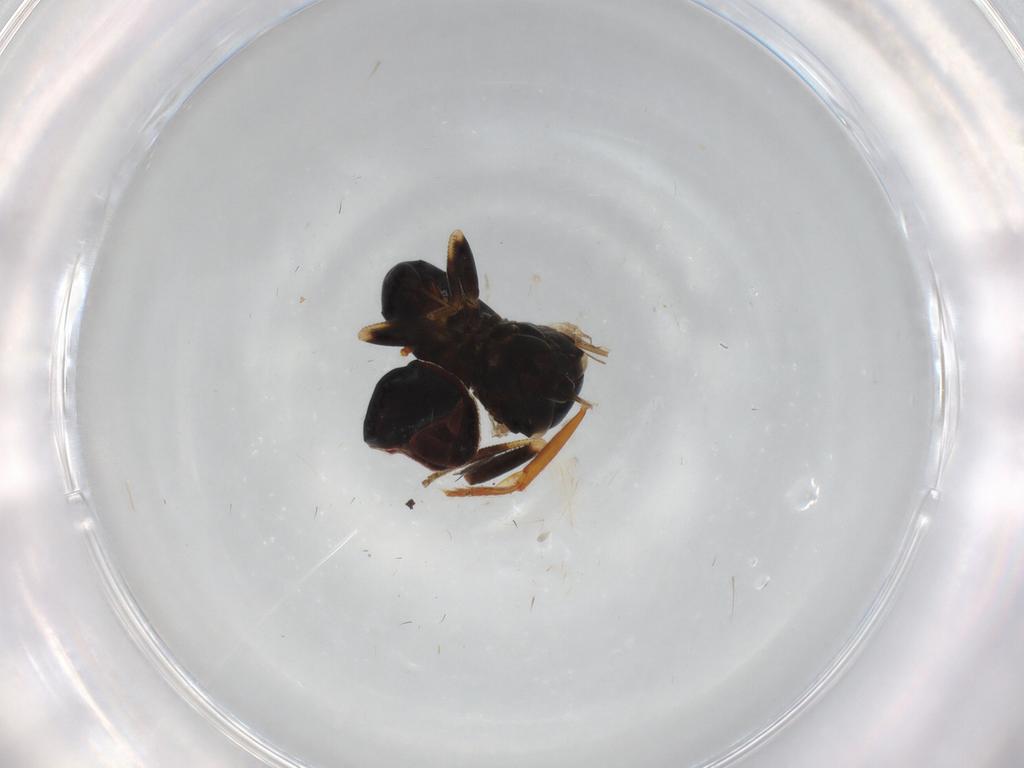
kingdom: Animalia
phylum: Arthropoda
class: Insecta
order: Diptera
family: Pipunculidae
